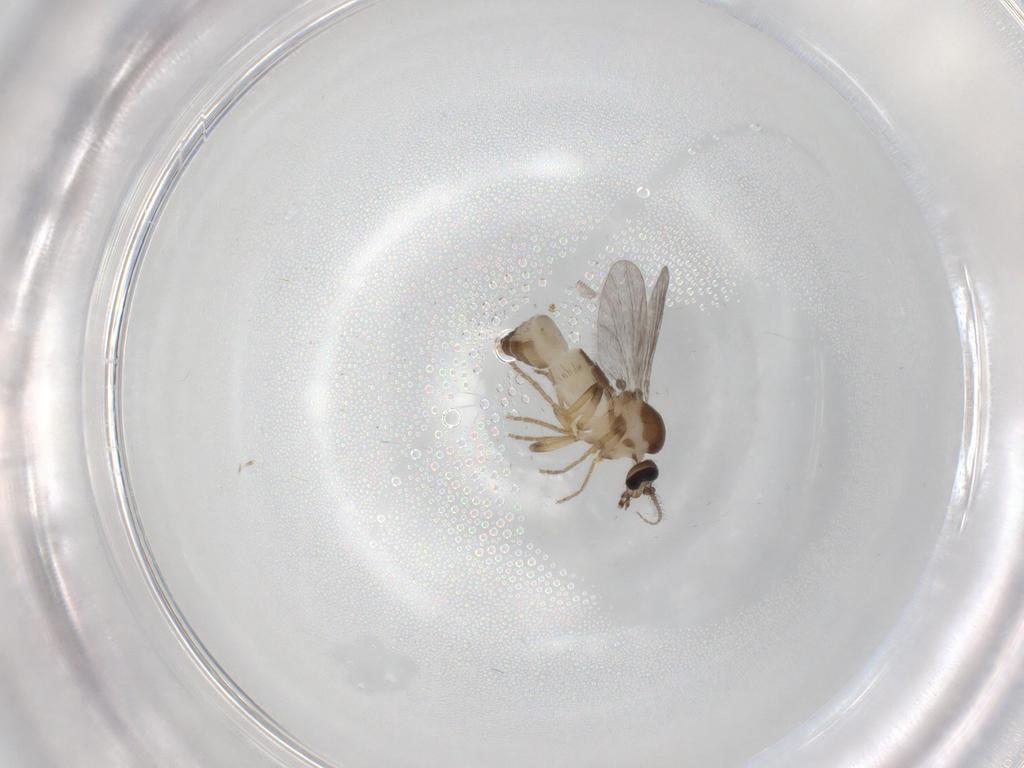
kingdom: Animalia
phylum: Arthropoda
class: Insecta
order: Diptera
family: Ceratopogonidae
